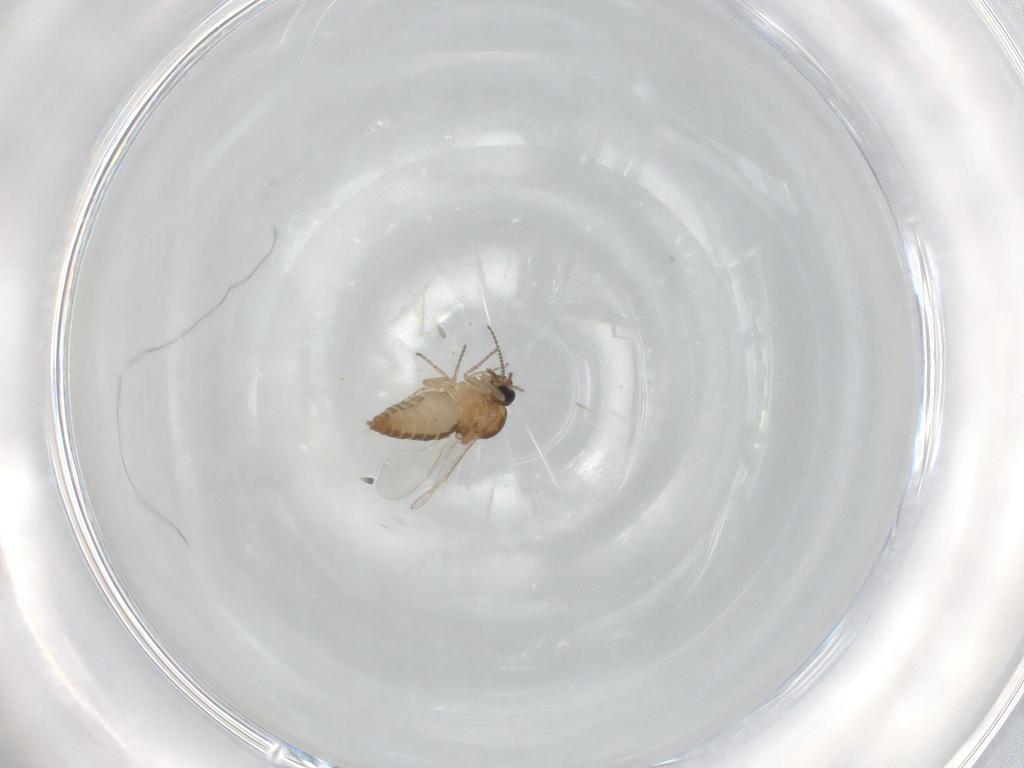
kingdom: Animalia
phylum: Arthropoda
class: Insecta
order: Diptera
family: Ceratopogonidae
